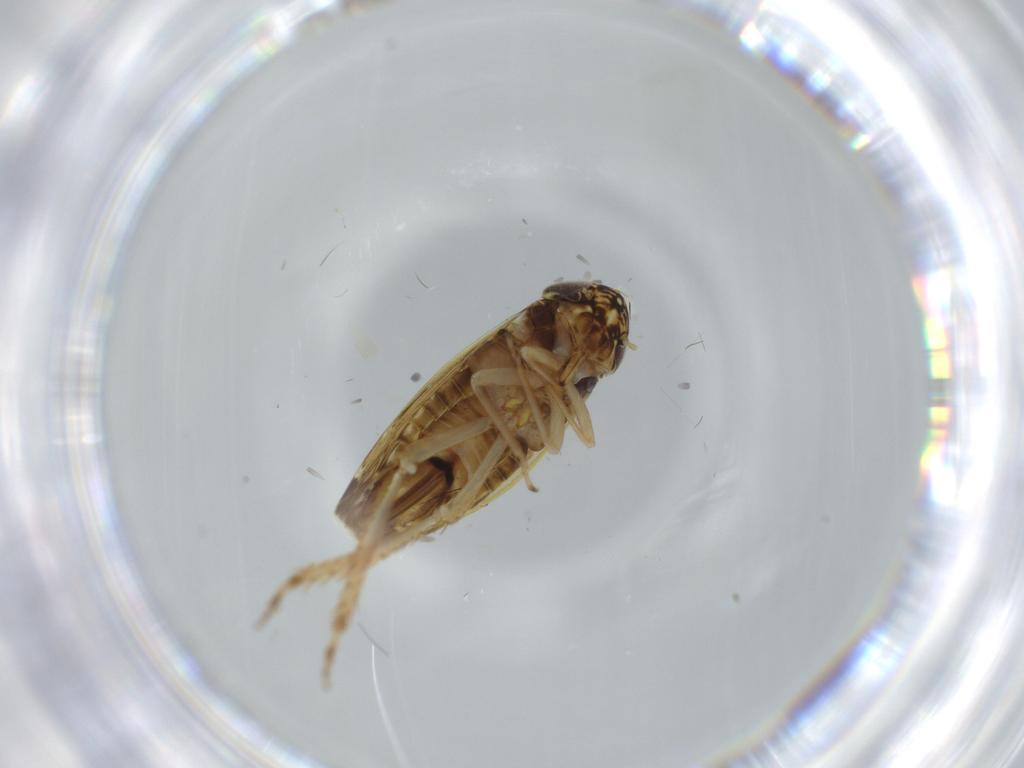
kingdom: Animalia
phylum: Arthropoda
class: Insecta
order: Hemiptera
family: Cicadellidae
